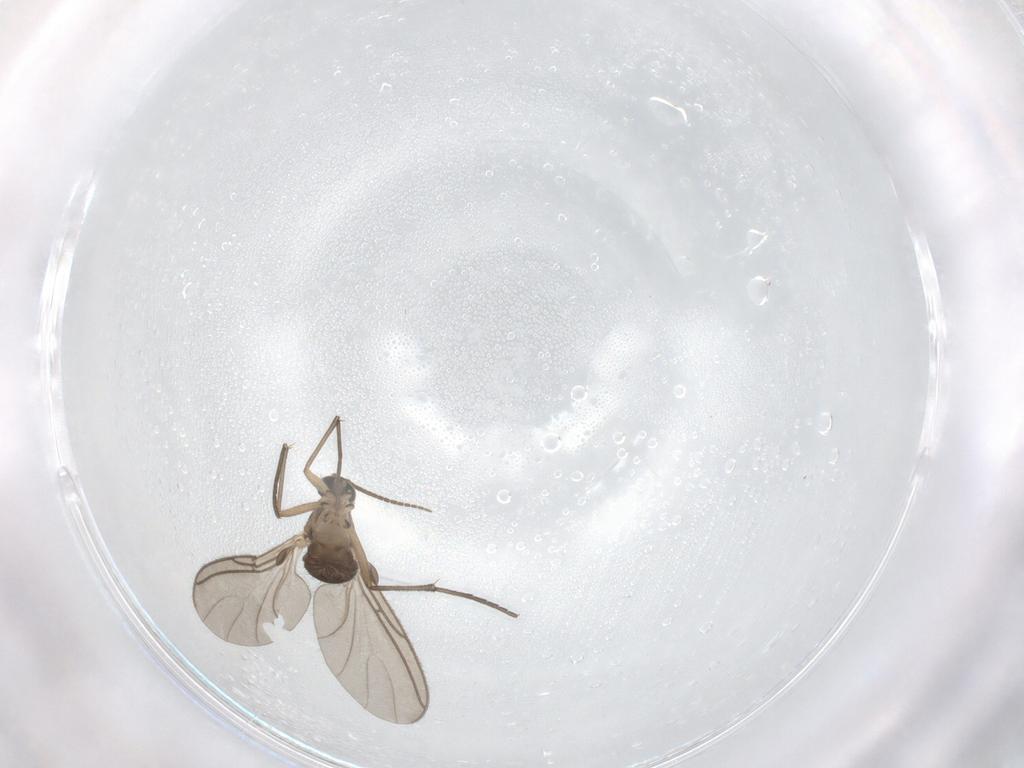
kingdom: Animalia
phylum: Arthropoda
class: Insecta
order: Diptera
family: Sciaridae
